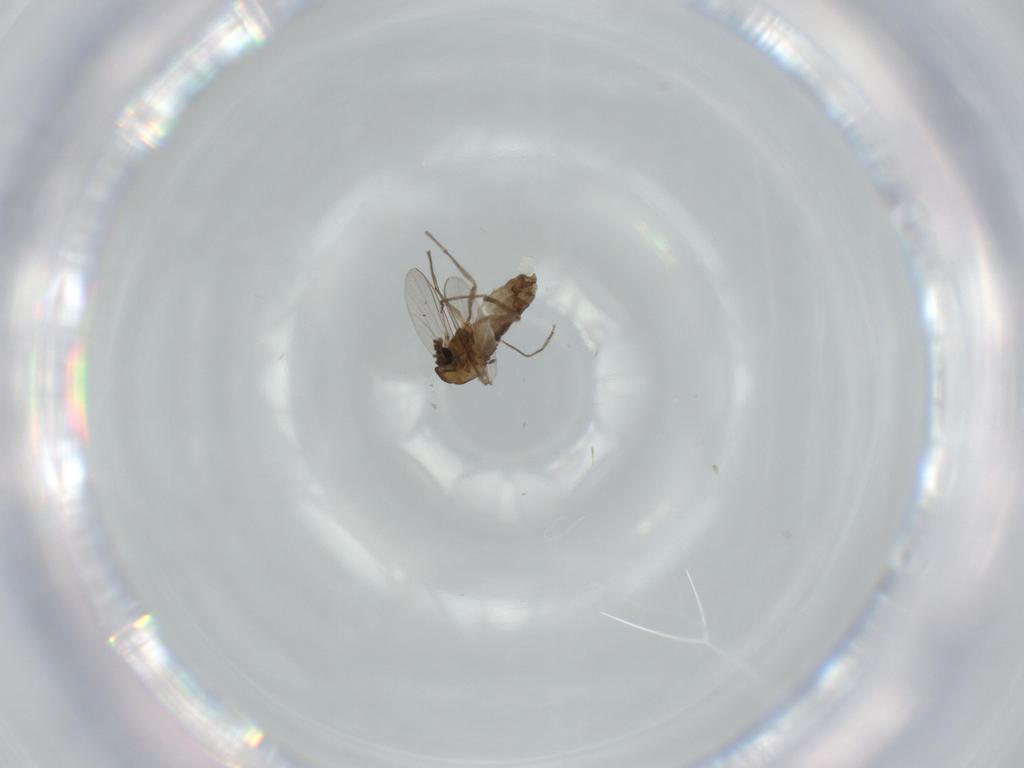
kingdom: Animalia
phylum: Arthropoda
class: Insecta
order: Diptera
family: Chironomidae
